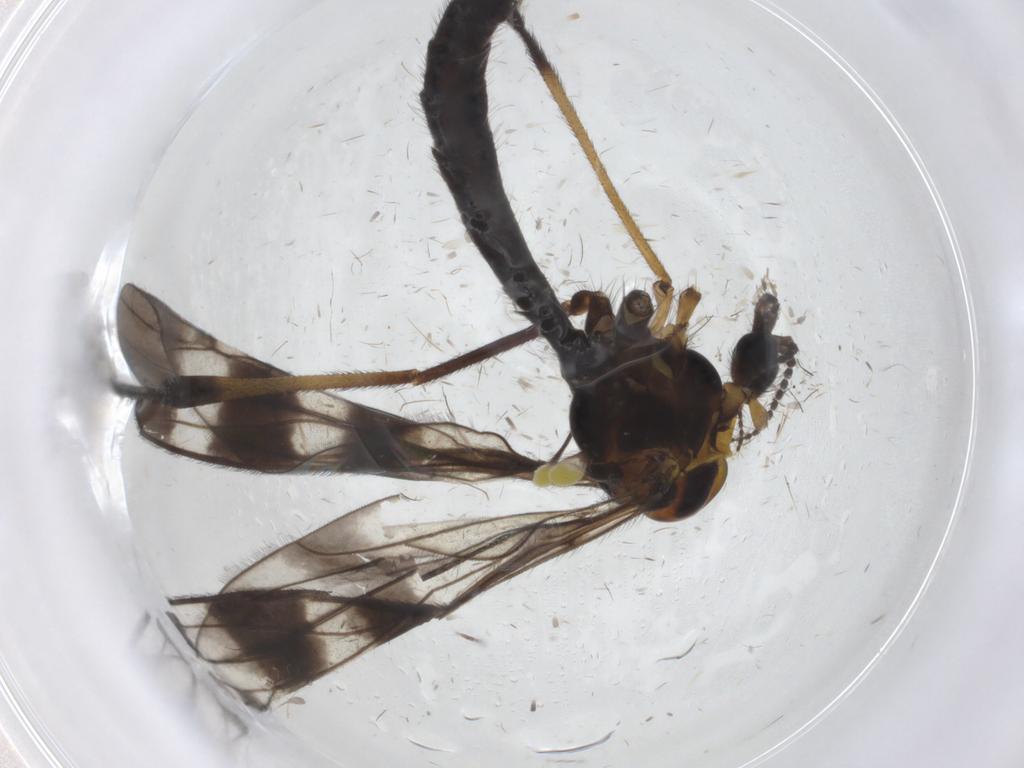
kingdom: Animalia
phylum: Arthropoda
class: Insecta
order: Diptera
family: Limoniidae
